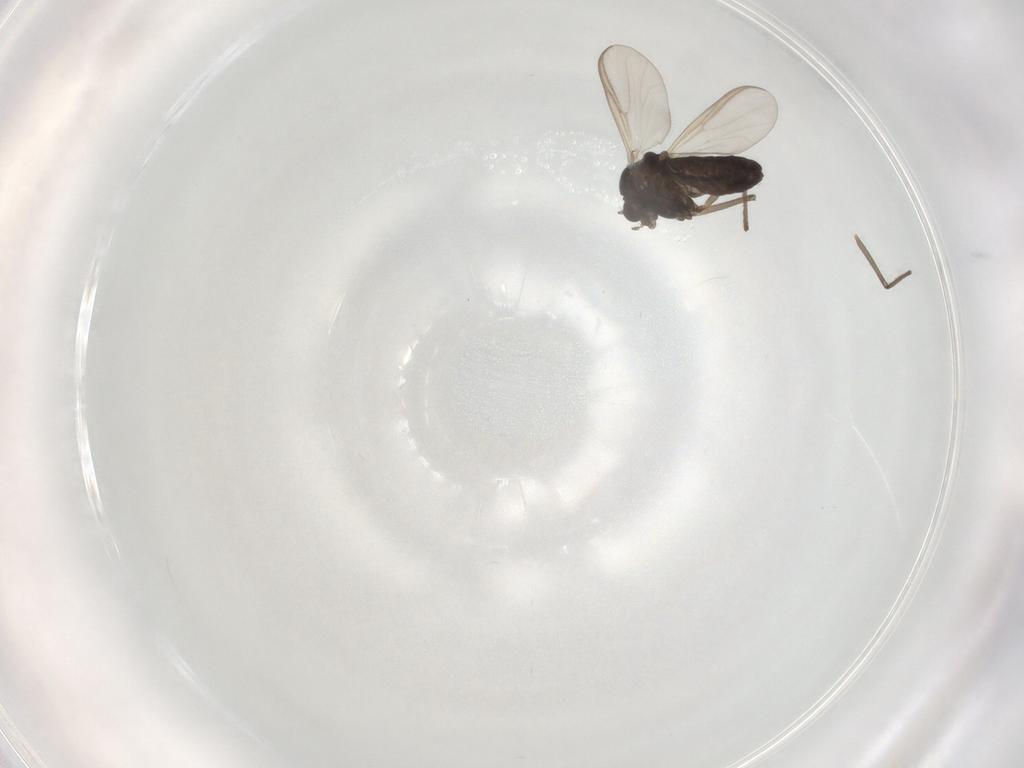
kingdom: Animalia
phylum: Arthropoda
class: Insecta
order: Diptera
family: Chironomidae
